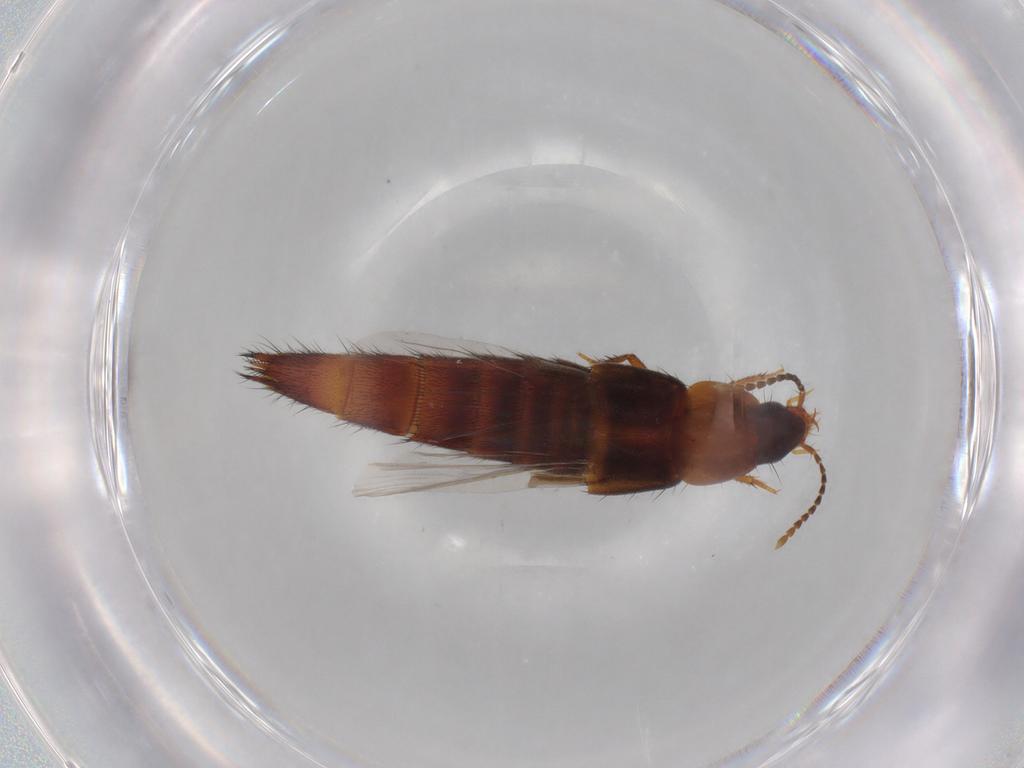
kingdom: Animalia
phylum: Arthropoda
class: Insecta
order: Coleoptera
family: Staphylinidae
